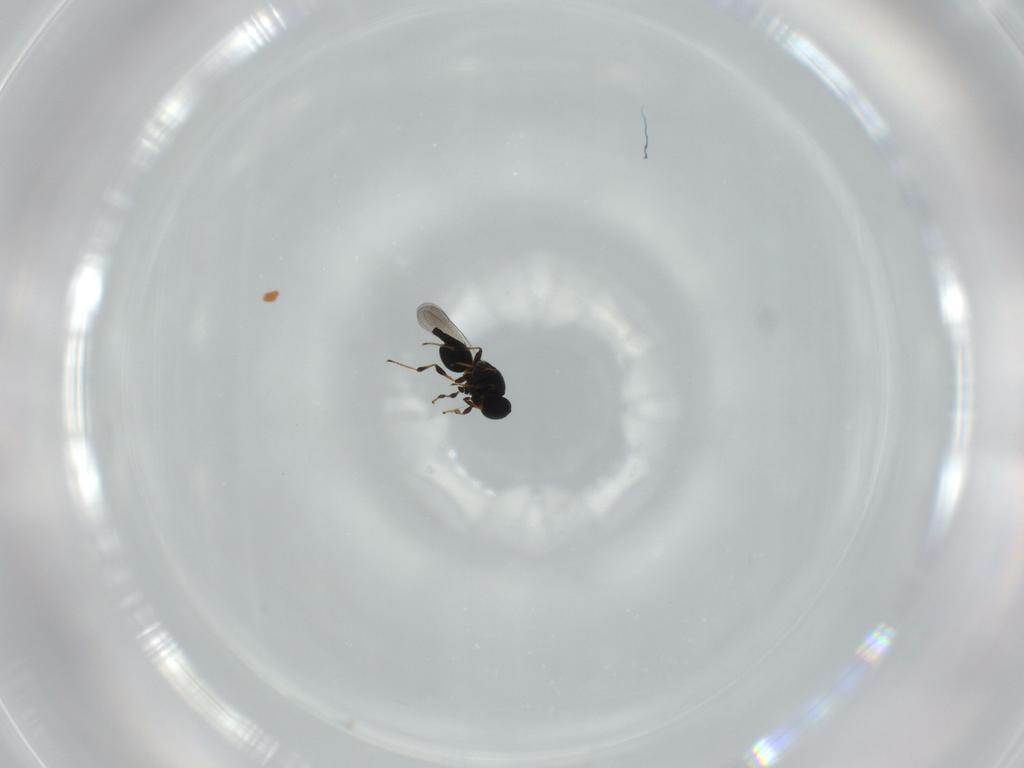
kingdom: Animalia
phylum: Arthropoda
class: Insecta
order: Hymenoptera
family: Platygastridae
